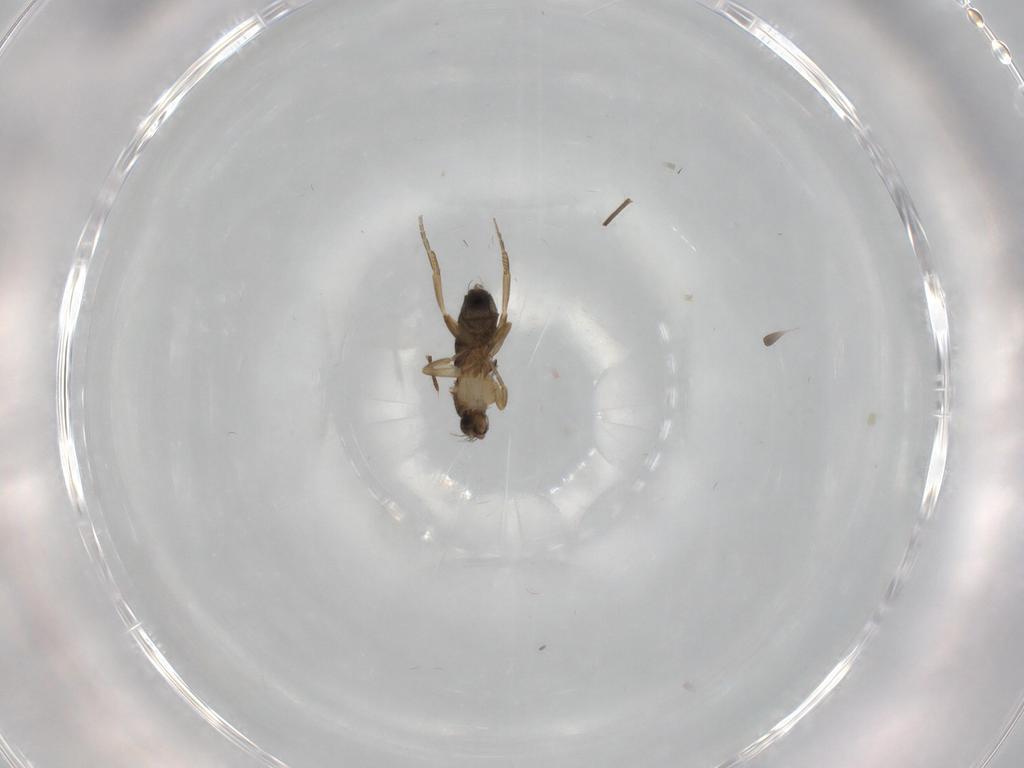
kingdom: Animalia
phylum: Arthropoda
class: Insecta
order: Diptera
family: Phoridae
